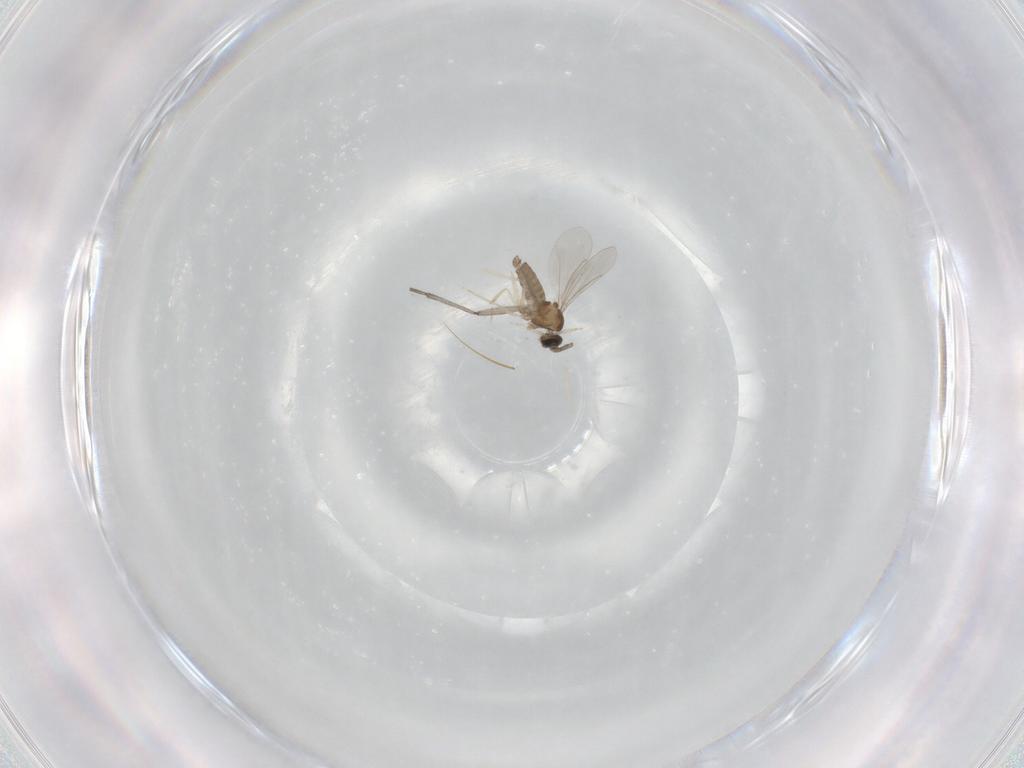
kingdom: Animalia
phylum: Arthropoda
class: Insecta
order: Diptera
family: Cecidomyiidae
